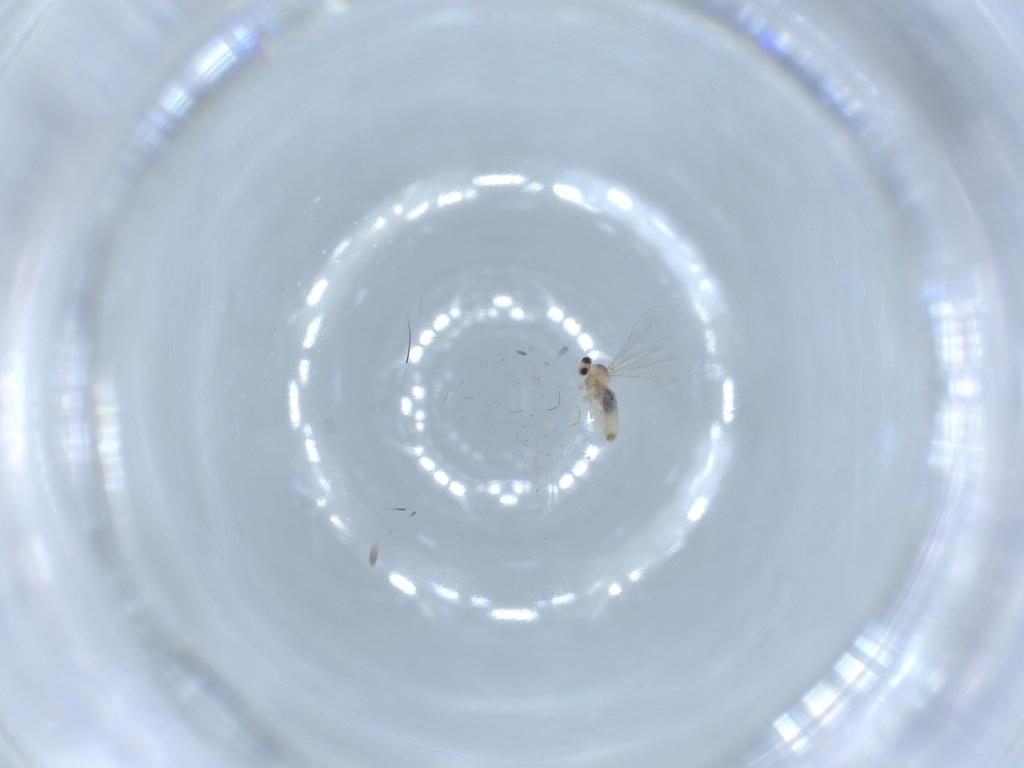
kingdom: Animalia
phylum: Arthropoda
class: Insecta
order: Diptera
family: Cecidomyiidae
